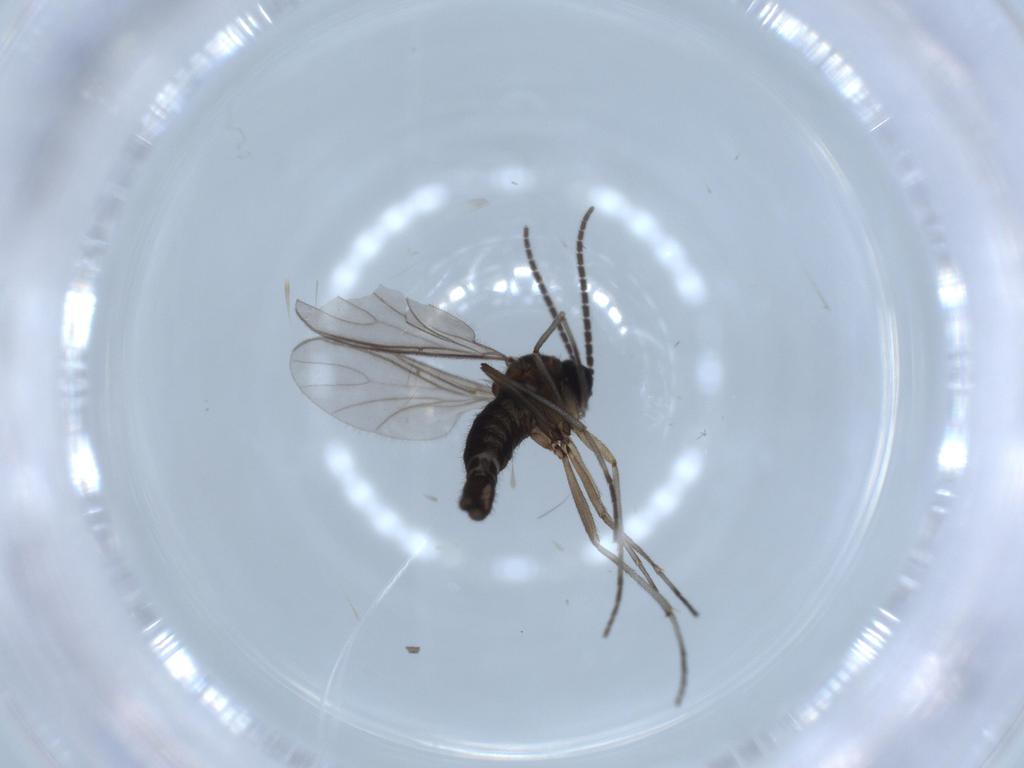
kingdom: Animalia
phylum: Arthropoda
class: Insecta
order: Diptera
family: Sciaridae
